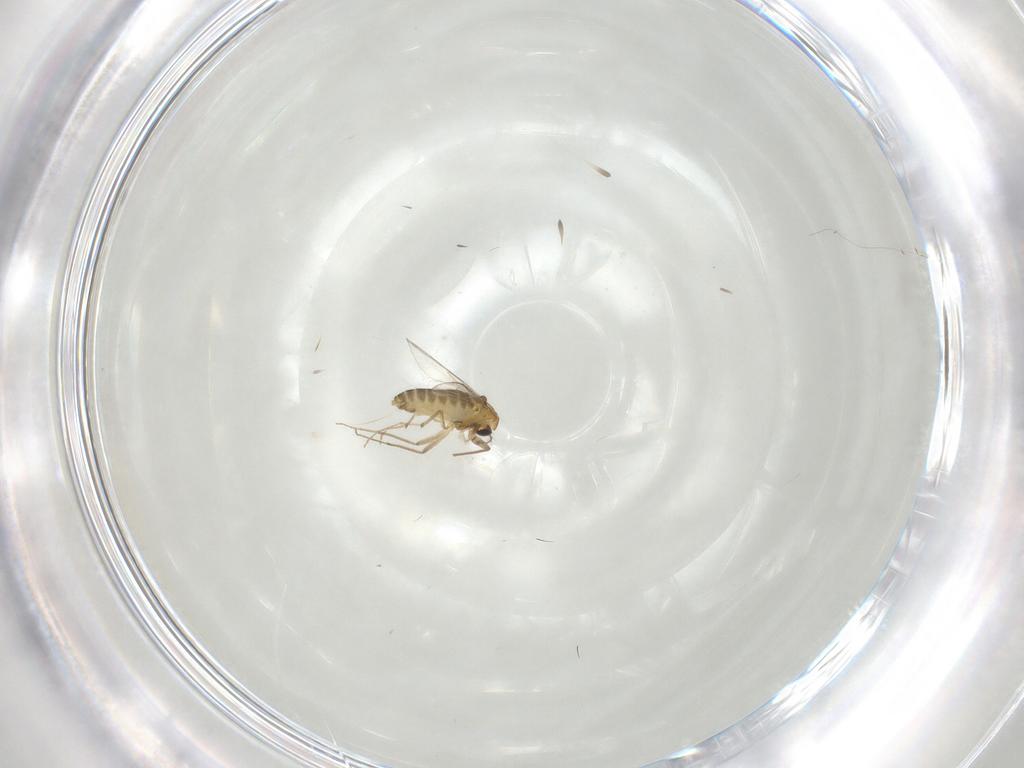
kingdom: Animalia
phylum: Arthropoda
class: Insecta
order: Diptera
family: Chironomidae
